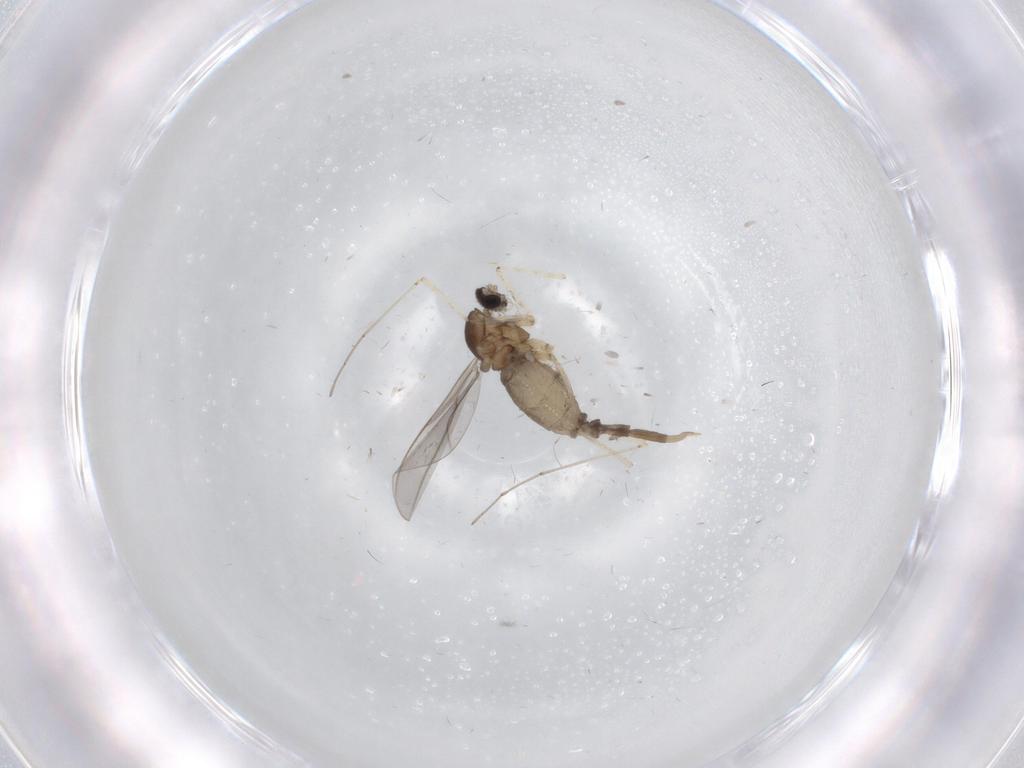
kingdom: Animalia
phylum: Arthropoda
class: Insecta
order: Diptera
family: Cecidomyiidae
